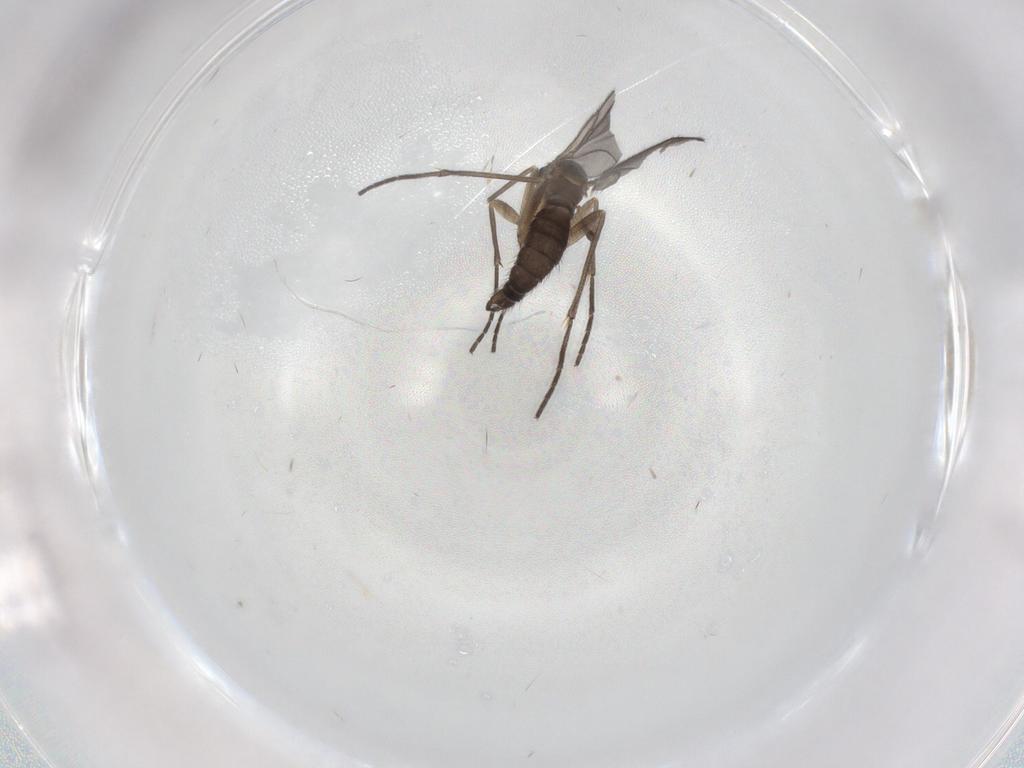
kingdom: Animalia
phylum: Arthropoda
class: Insecta
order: Diptera
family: Sciaridae
